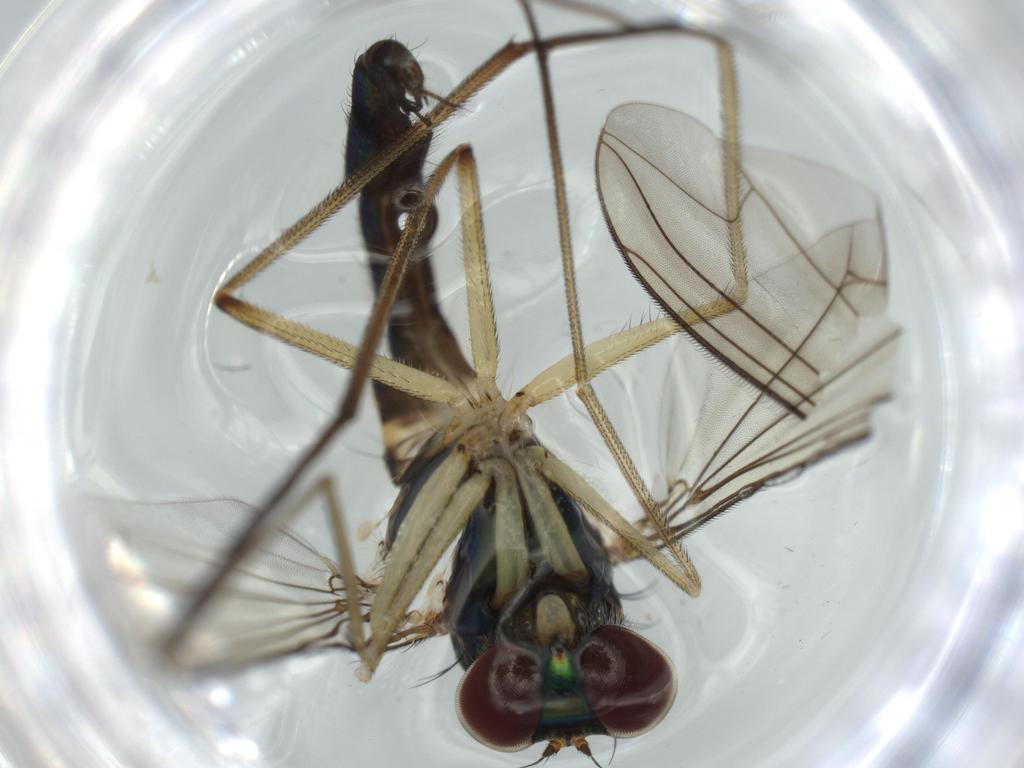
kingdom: Animalia
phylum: Arthropoda
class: Insecta
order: Diptera
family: Dolichopodidae
